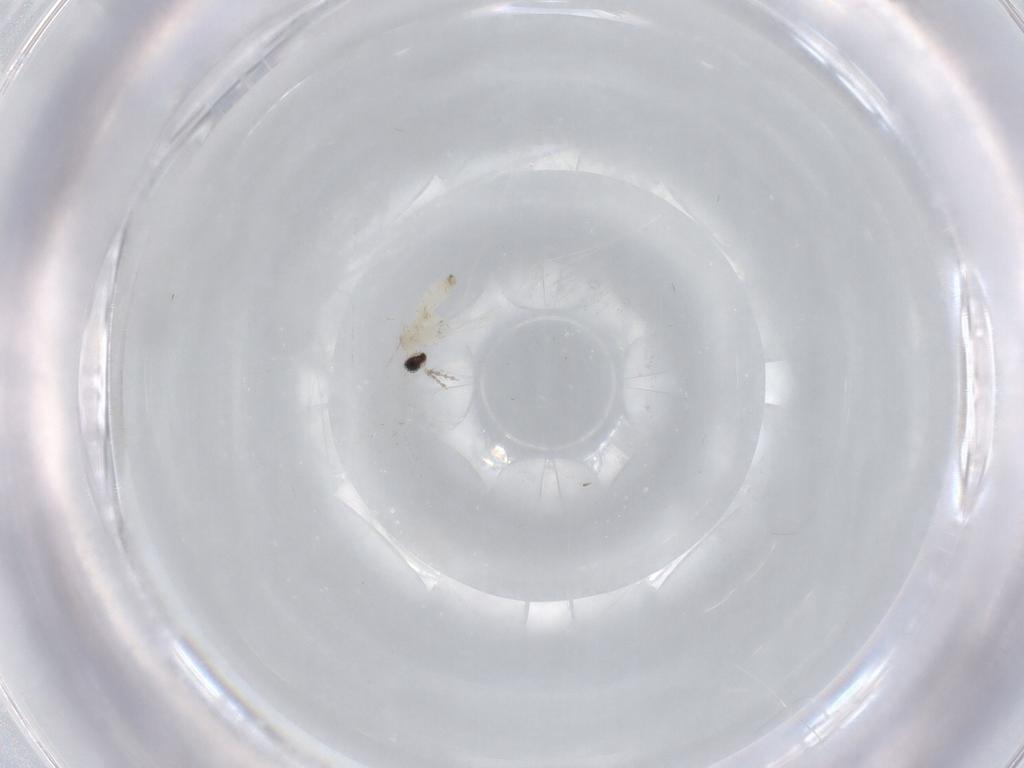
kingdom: Animalia
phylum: Arthropoda
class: Insecta
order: Diptera
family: Cecidomyiidae
